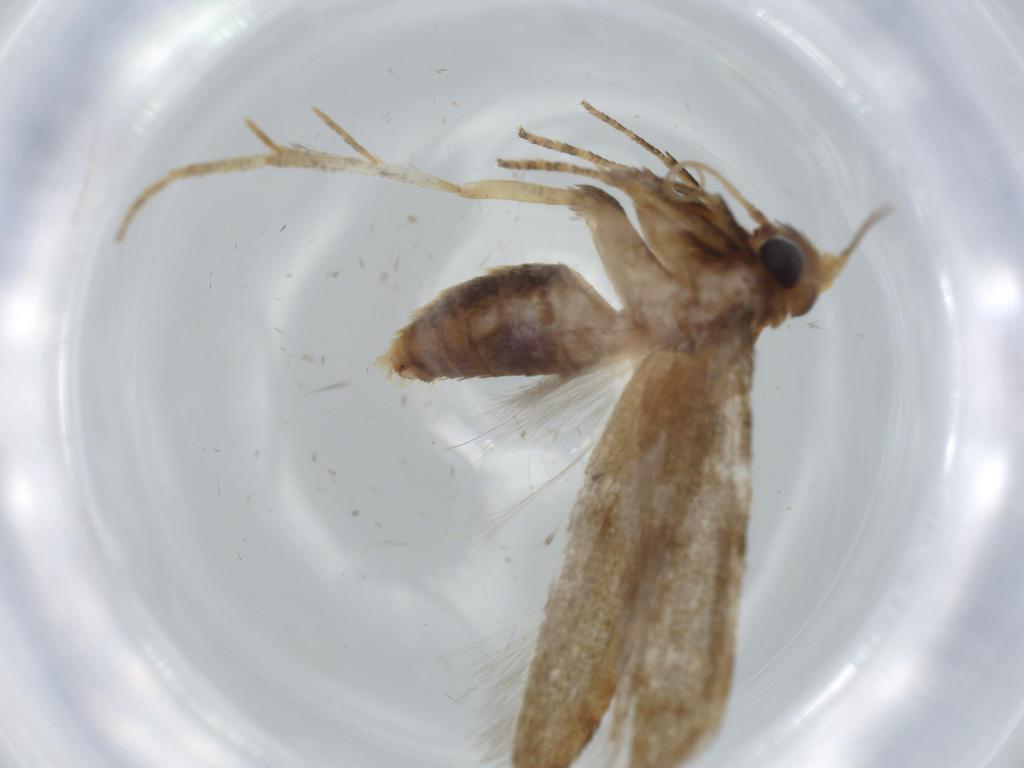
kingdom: Animalia
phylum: Arthropoda
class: Insecta
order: Lepidoptera
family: Tineidae
